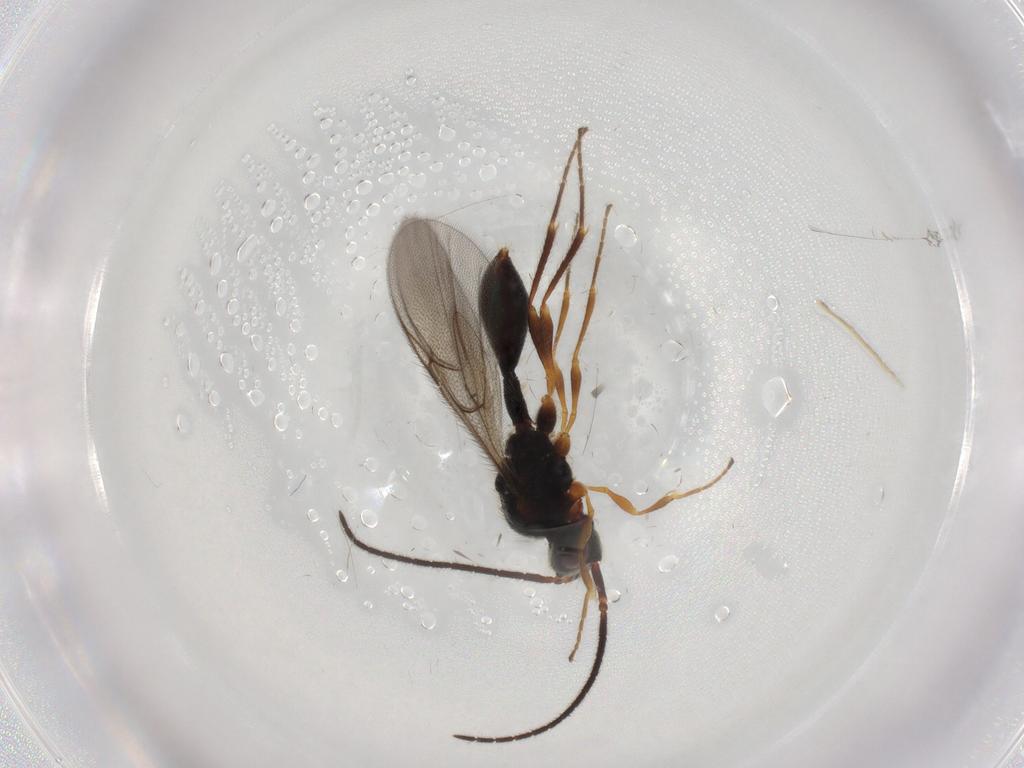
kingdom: Animalia
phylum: Arthropoda
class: Insecta
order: Hymenoptera
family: Diapriidae
